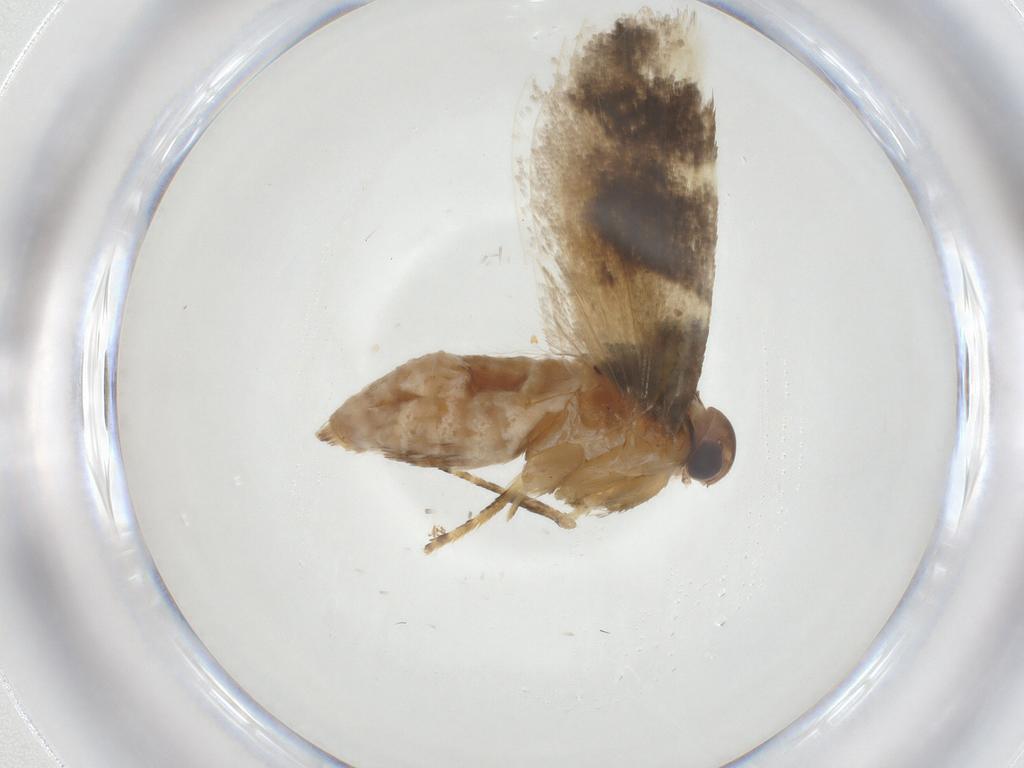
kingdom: Animalia
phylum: Arthropoda
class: Insecta
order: Lepidoptera
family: Gelechiidae
